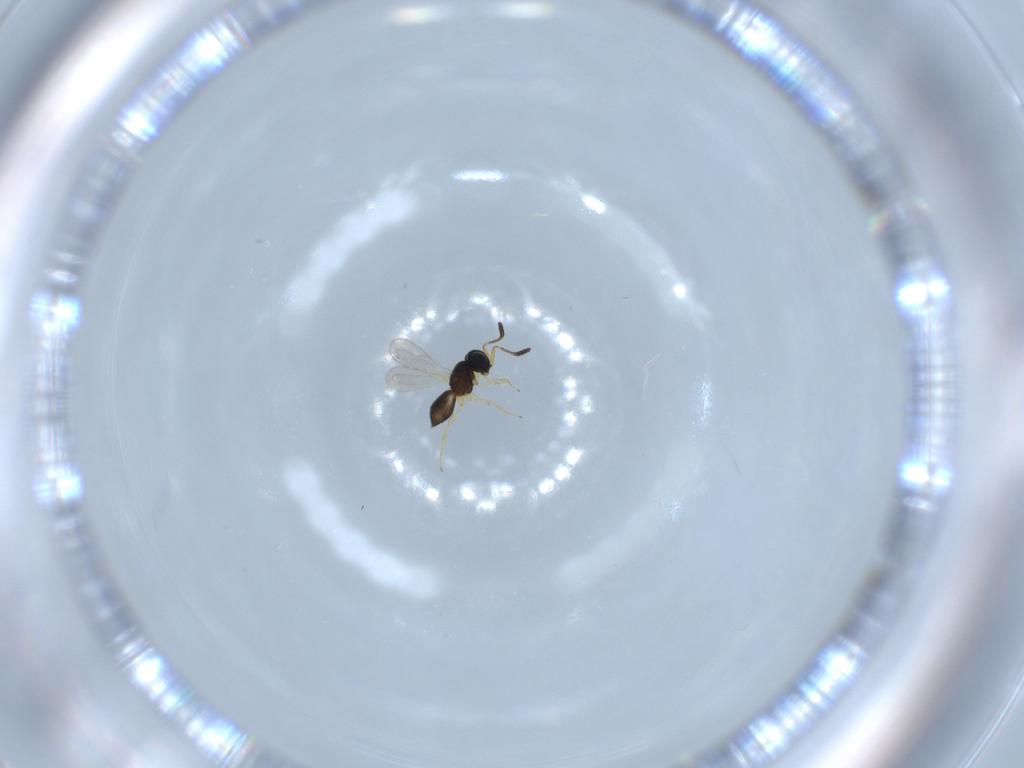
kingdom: Animalia
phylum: Arthropoda
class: Insecta
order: Hymenoptera
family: Scelionidae
